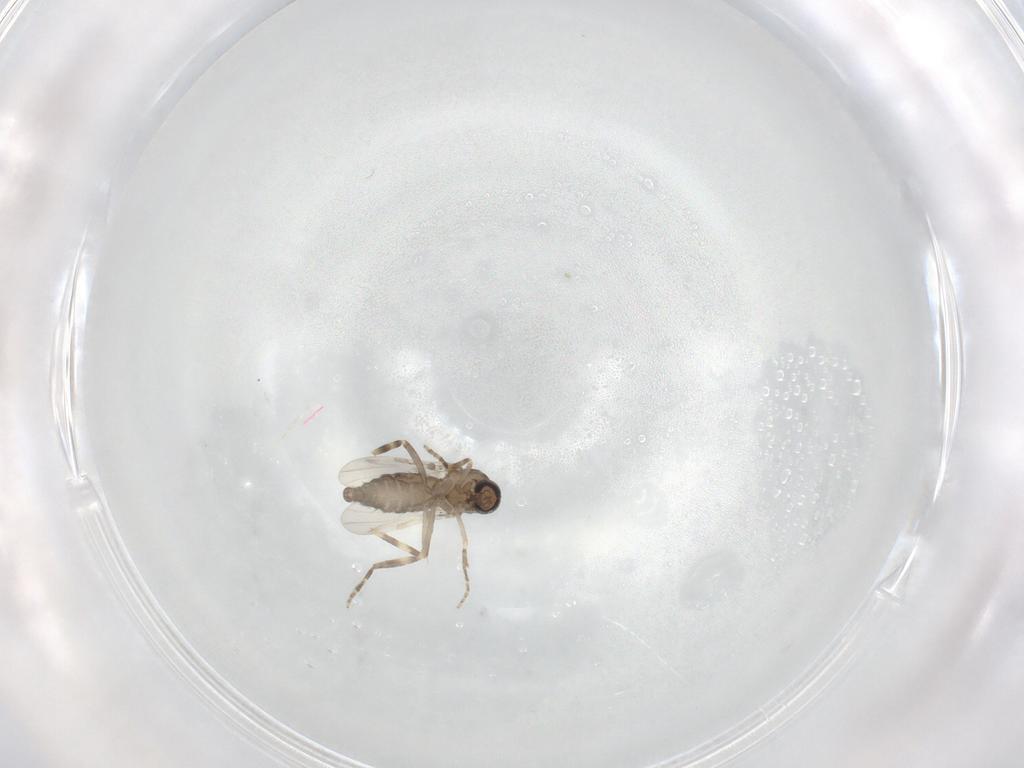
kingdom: Animalia
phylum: Arthropoda
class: Insecta
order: Diptera
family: Ceratopogonidae
